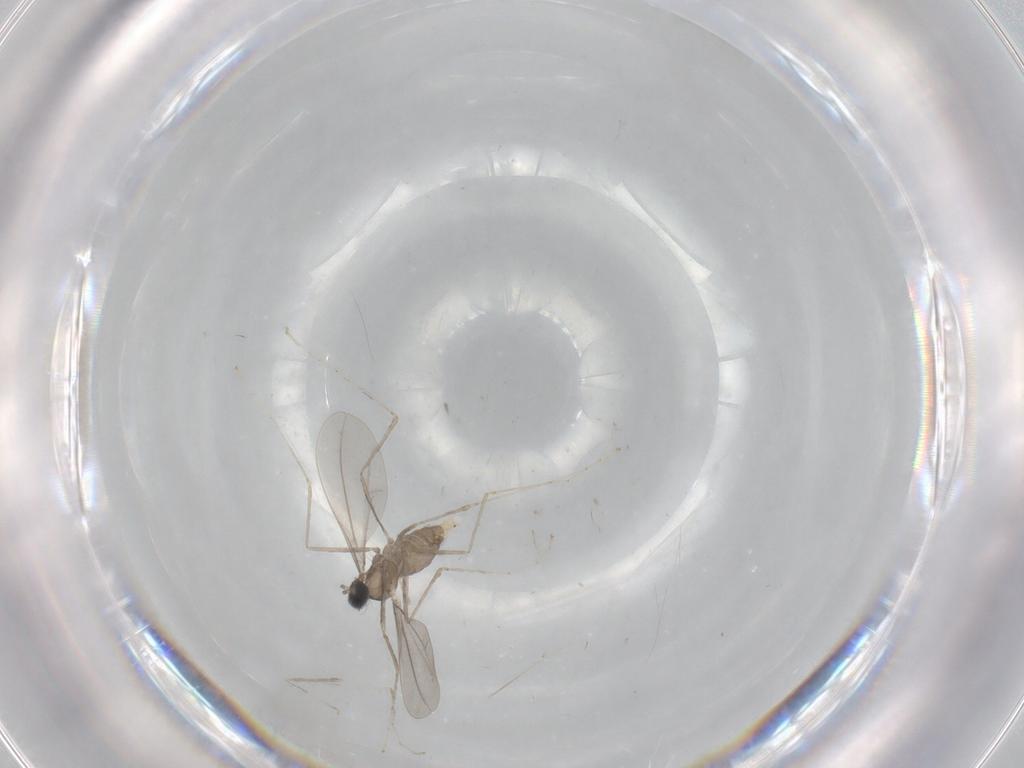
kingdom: Animalia
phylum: Arthropoda
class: Insecta
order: Diptera
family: Cecidomyiidae
